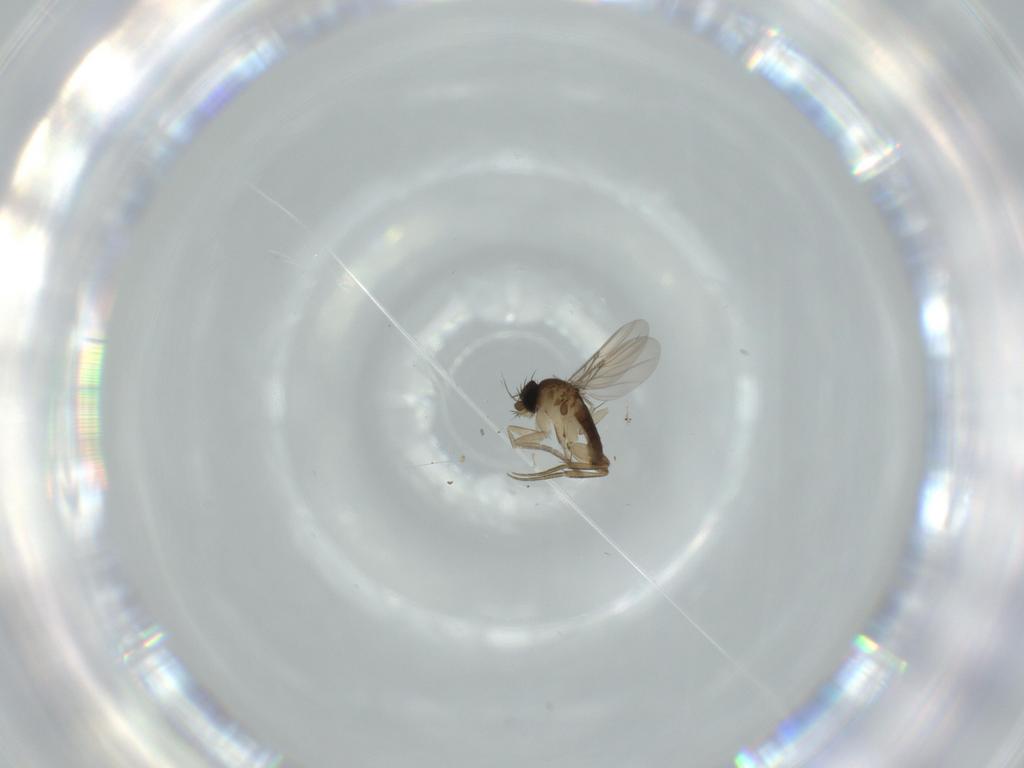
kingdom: Animalia
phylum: Arthropoda
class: Insecta
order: Diptera
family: Phoridae
